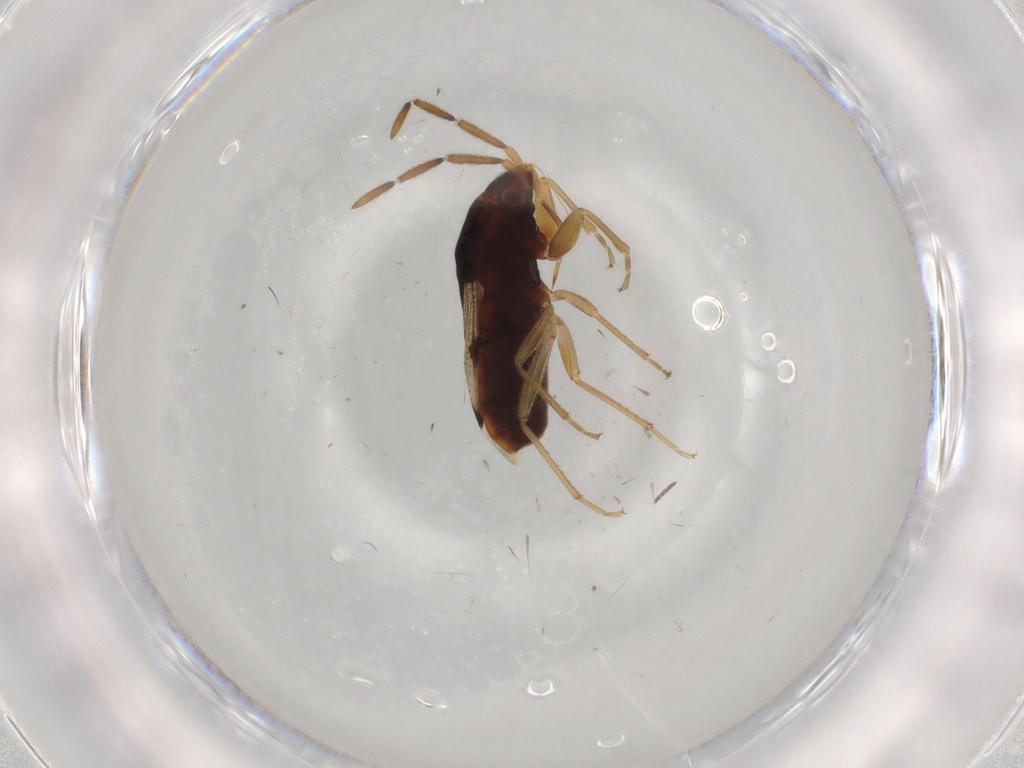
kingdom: Animalia
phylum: Arthropoda
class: Insecta
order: Hemiptera
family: Rhyparochromidae
